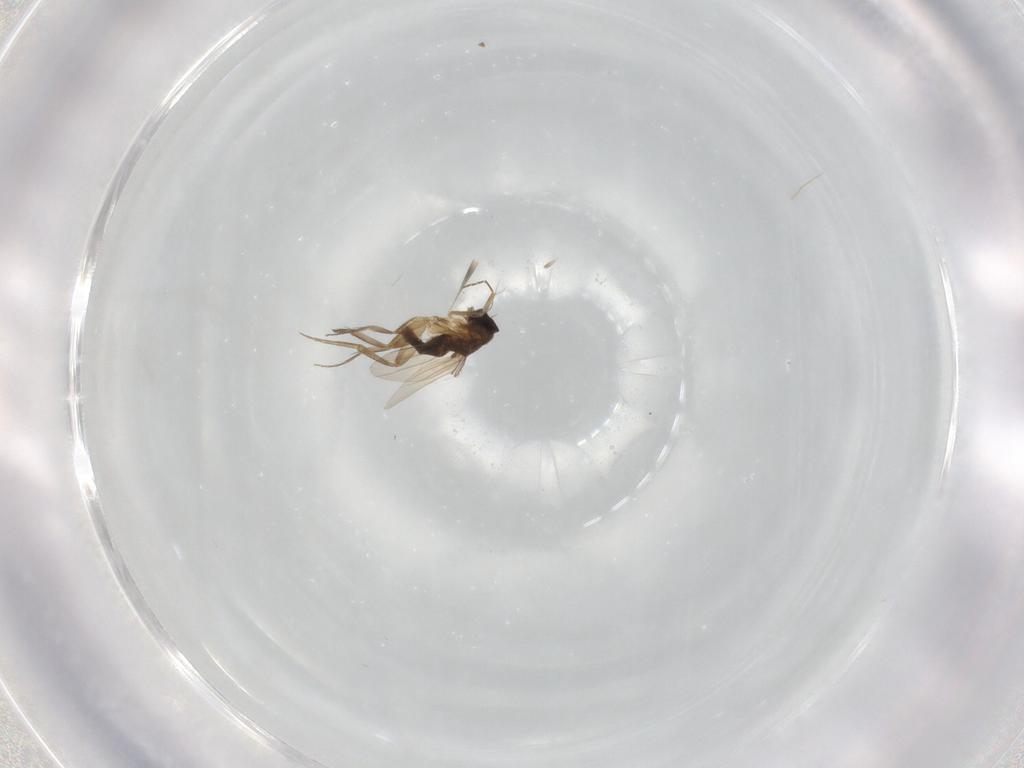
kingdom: Animalia
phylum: Arthropoda
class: Insecta
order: Diptera
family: Phoridae
